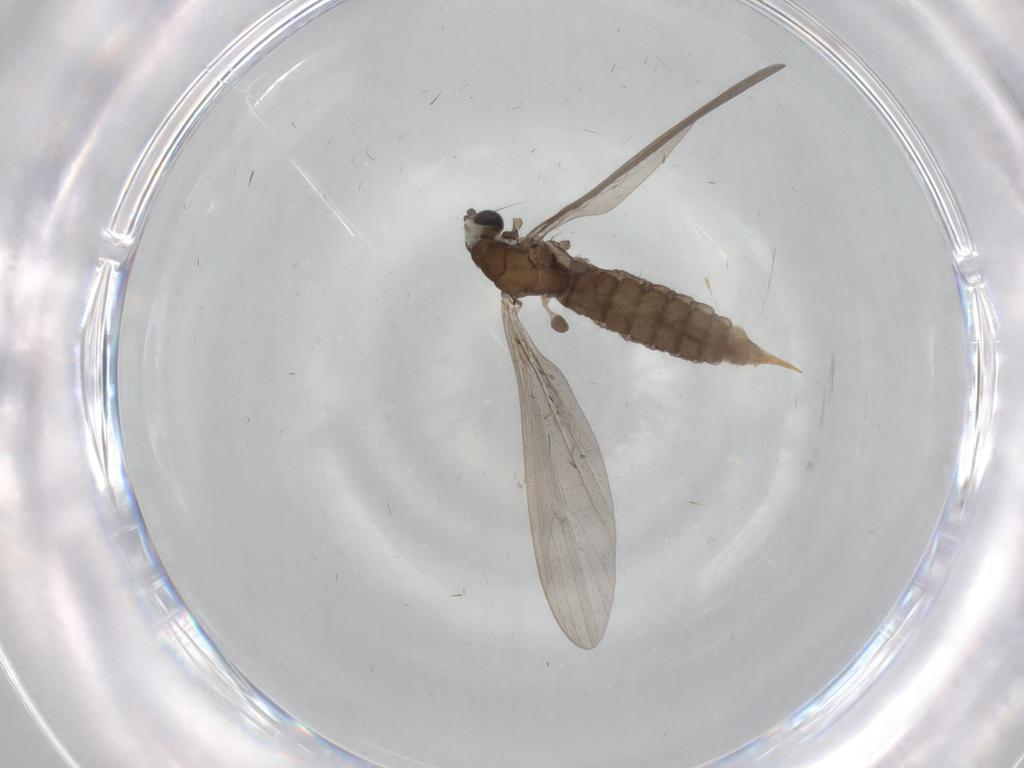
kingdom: Animalia
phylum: Arthropoda
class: Insecta
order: Diptera
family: Limoniidae
